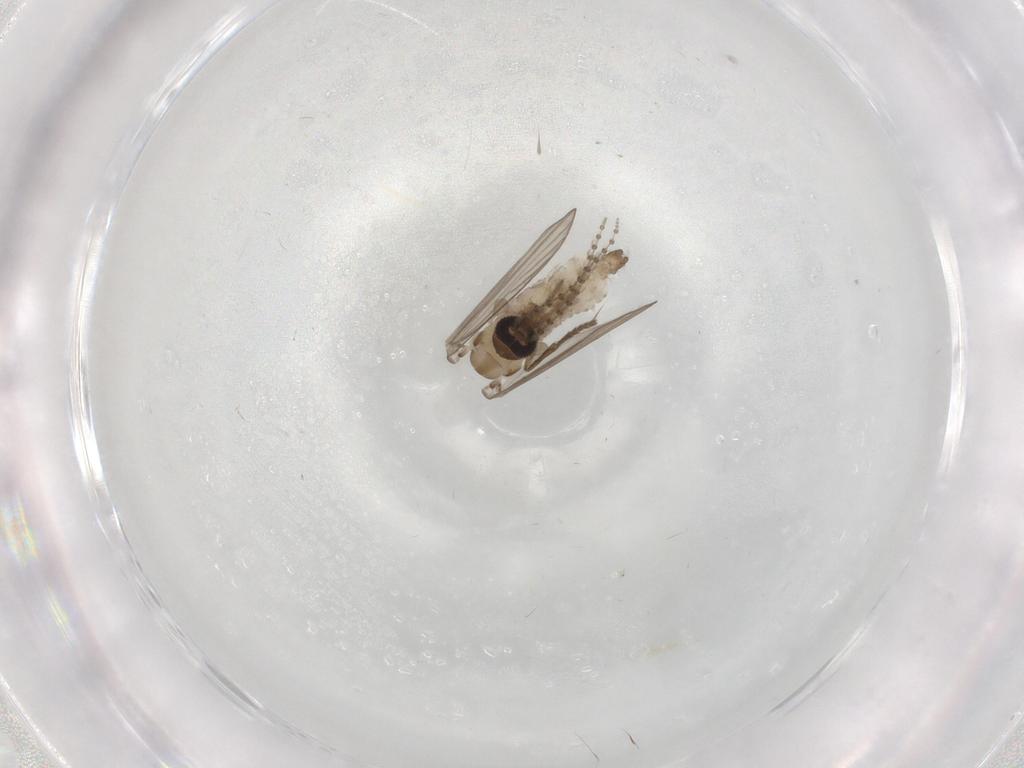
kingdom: Animalia
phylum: Arthropoda
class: Insecta
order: Diptera
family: Psychodidae
